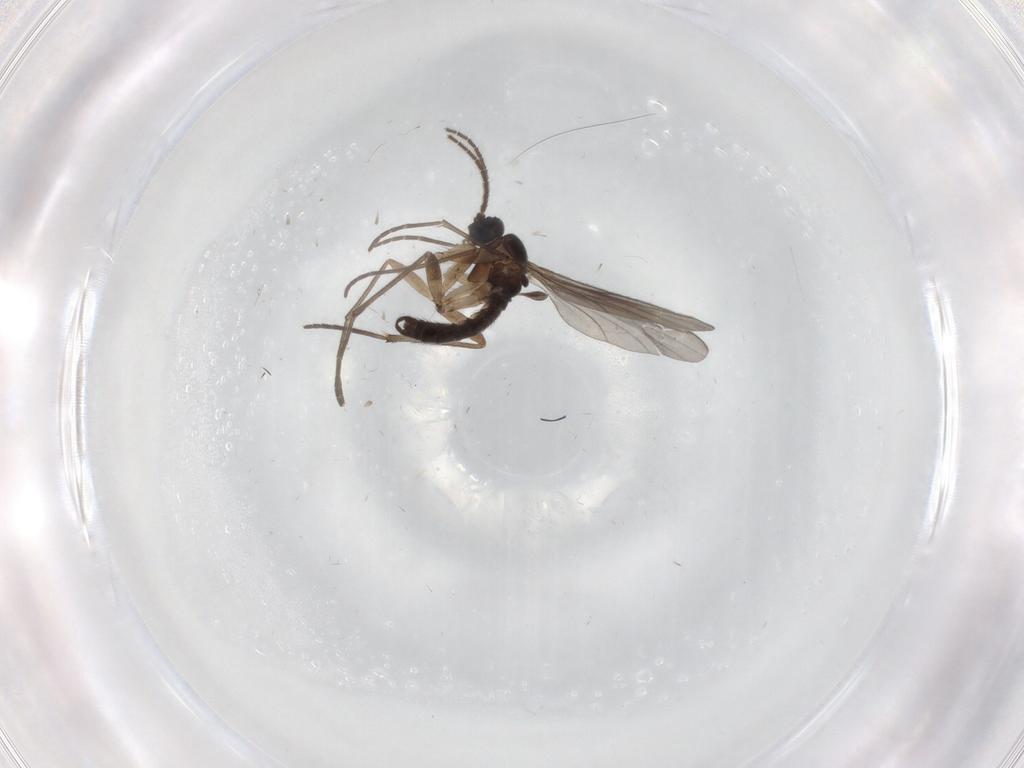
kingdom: Animalia
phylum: Arthropoda
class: Insecta
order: Diptera
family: Sciaridae
